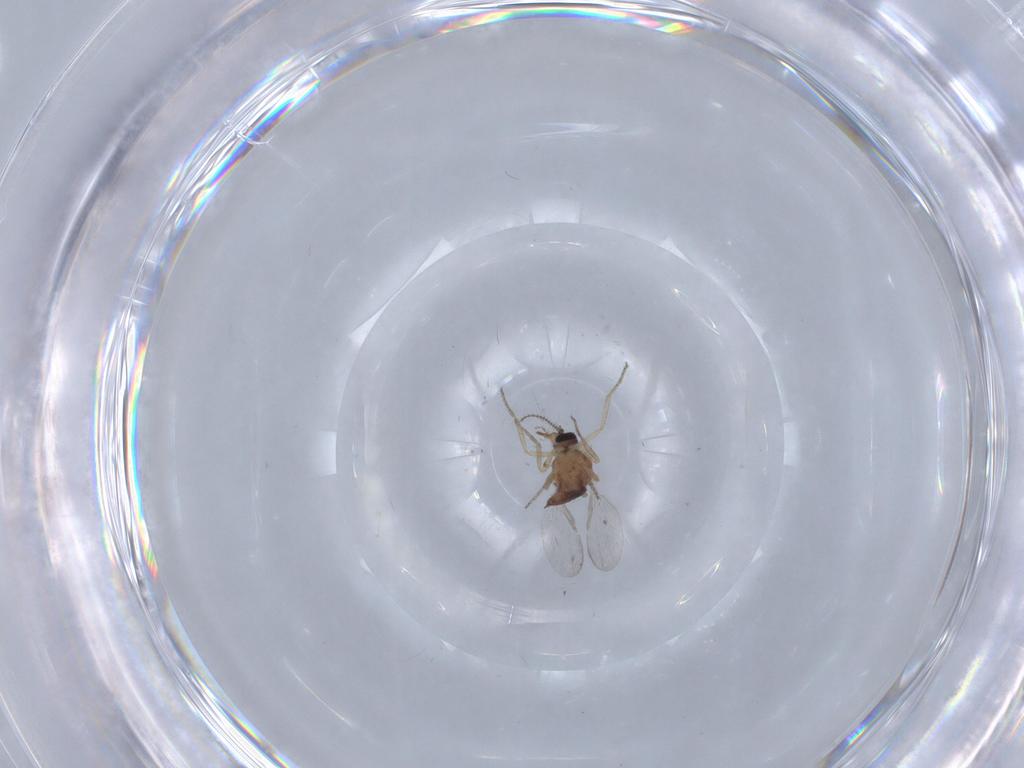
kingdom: Animalia
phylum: Arthropoda
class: Insecta
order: Diptera
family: Ceratopogonidae
